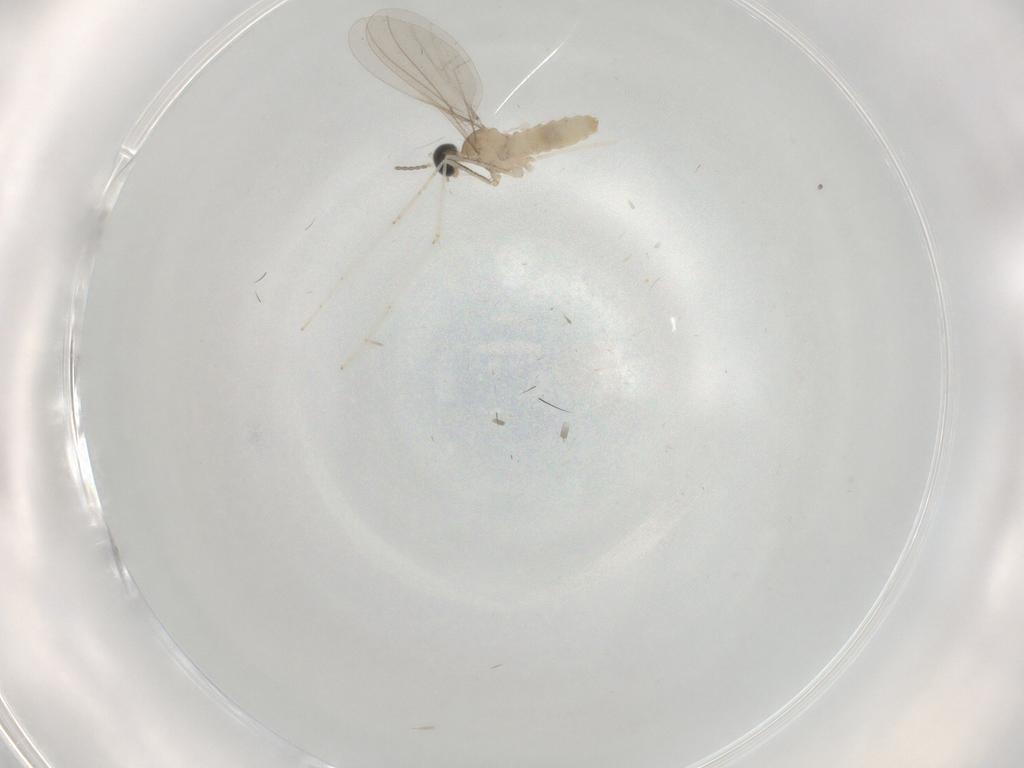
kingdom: Animalia
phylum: Arthropoda
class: Insecta
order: Diptera
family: Cecidomyiidae
